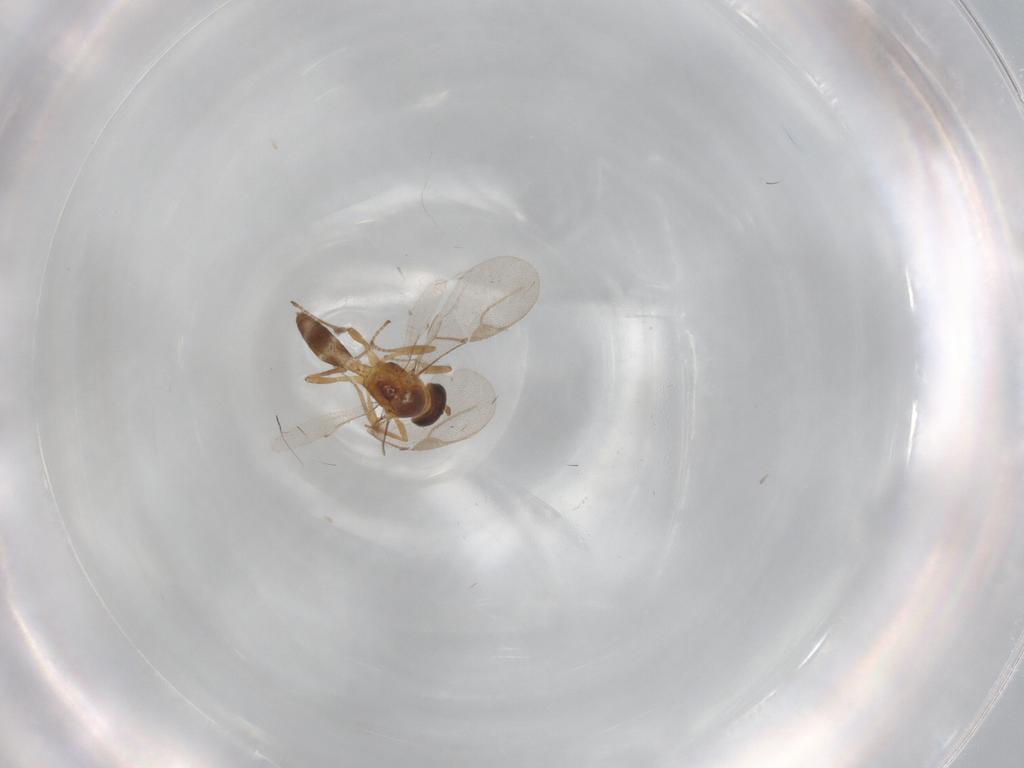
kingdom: Animalia
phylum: Arthropoda
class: Insecta
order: Hymenoptera
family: Braconidae
